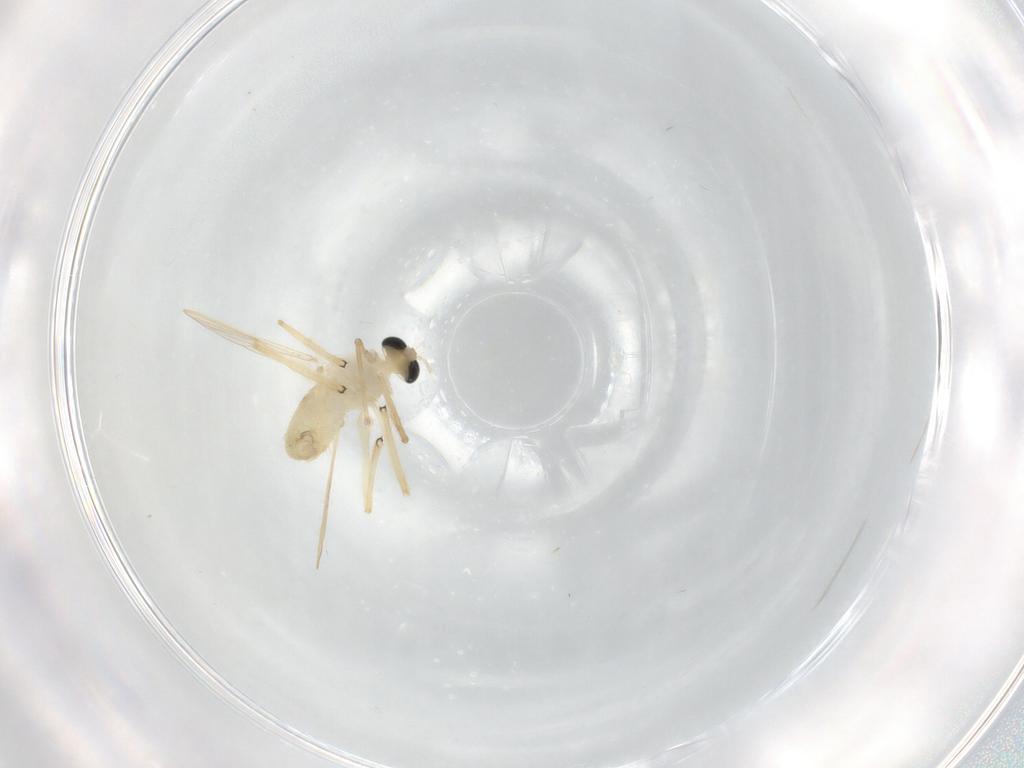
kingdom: Animalia
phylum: Arthropoda
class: Insecta
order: Diptera
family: Chironomidae
